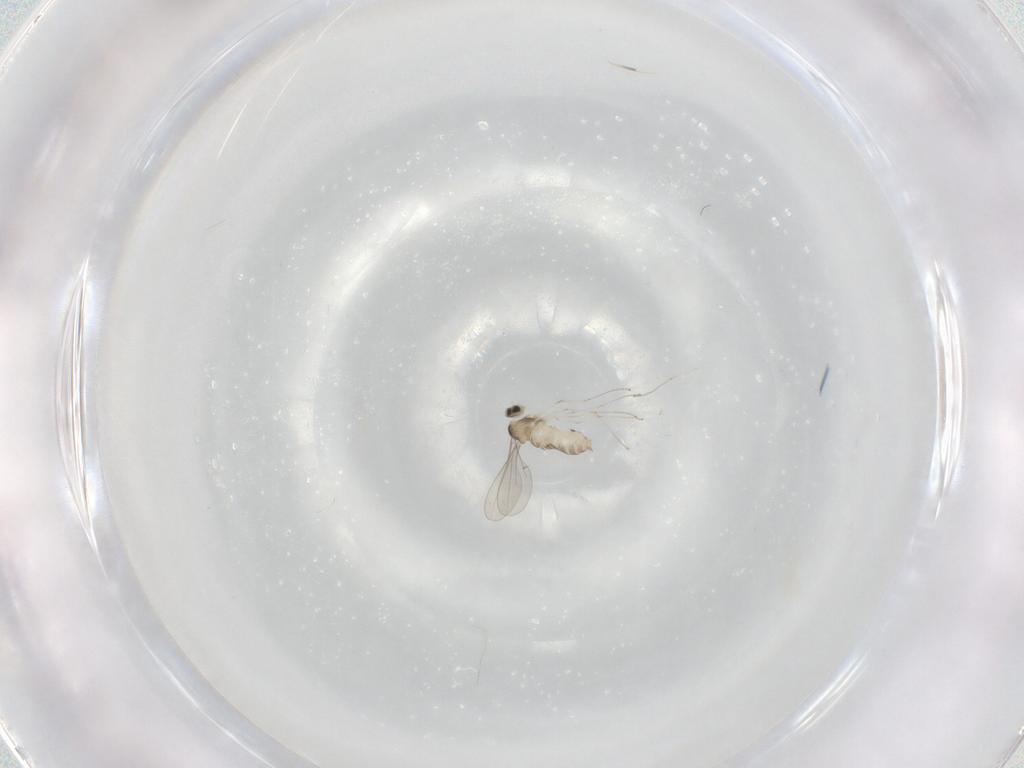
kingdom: Animalia
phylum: Arthropoda
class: Insecta
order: Diptera
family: Cecidomyiidae
